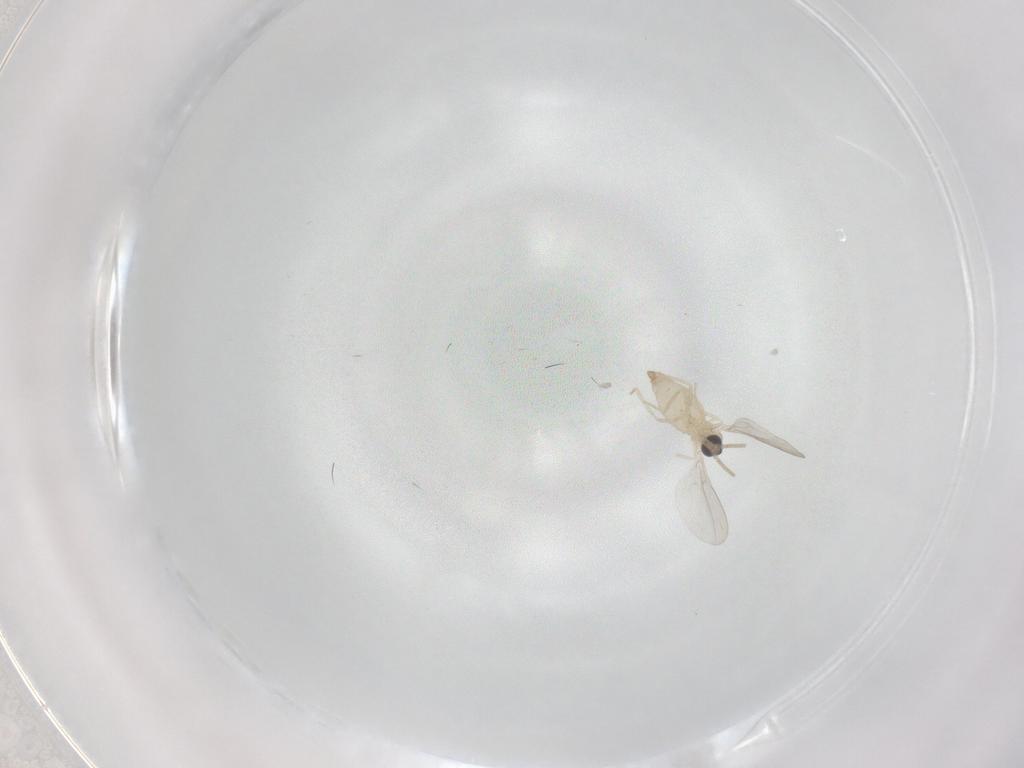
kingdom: Animalia
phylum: Arthropoda
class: Insecta
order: Diptera
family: Cecidomyiidae
